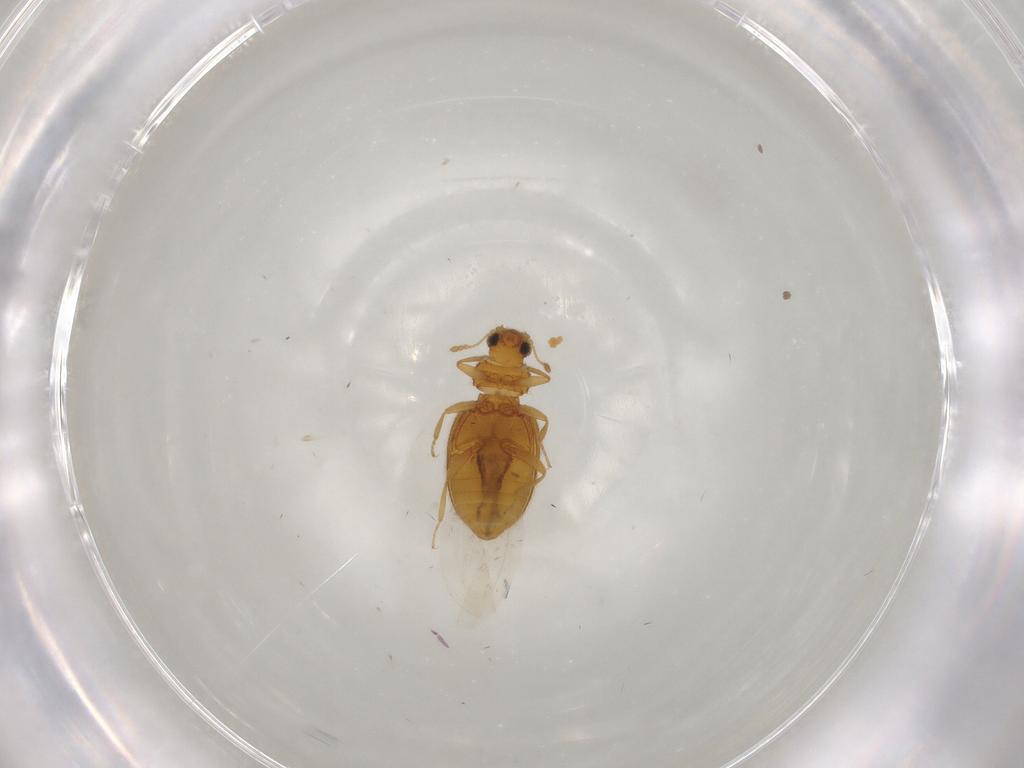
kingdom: Animalia
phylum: Arthropoda
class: Insecta
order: Coleoptera
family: Latridiidae
